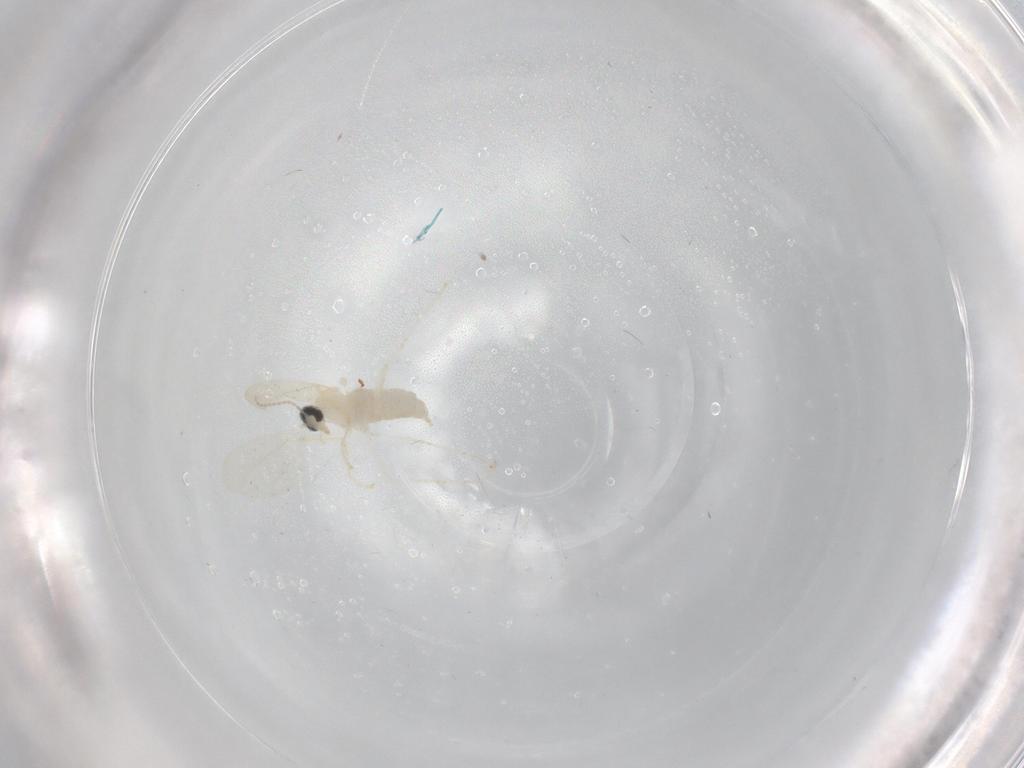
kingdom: Animalia
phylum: Arthropoda
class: Insecta
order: Diptera
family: Cecidomyiidae
